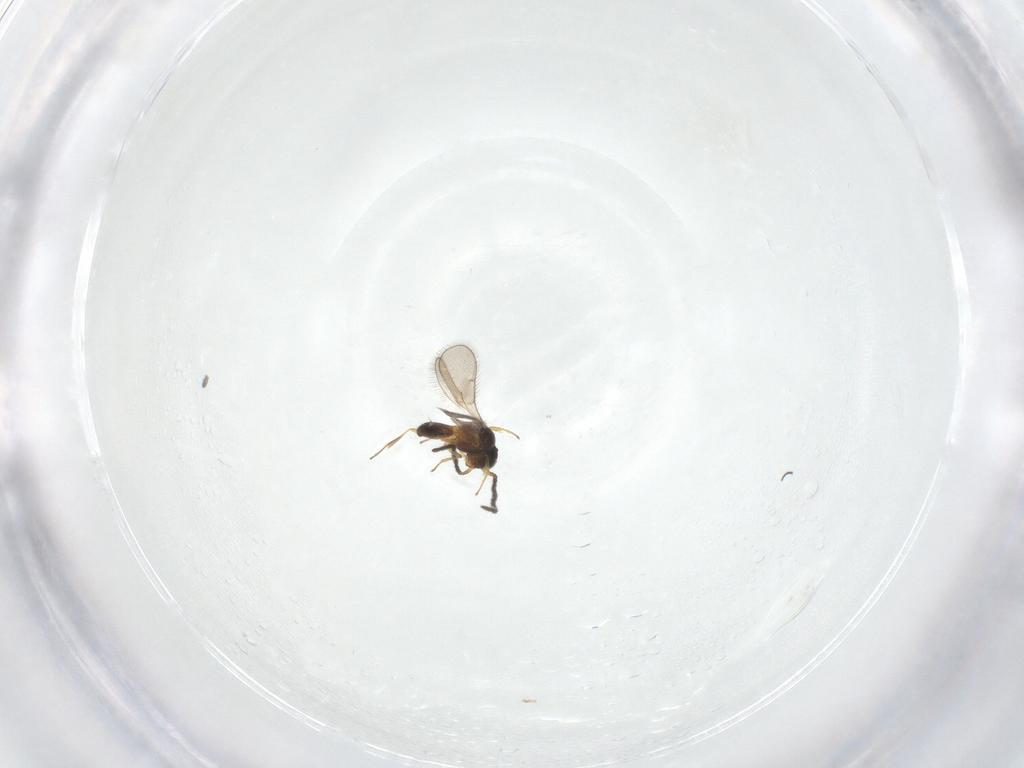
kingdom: Animalia
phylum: Arthropoda
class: Insecta
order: Hymenoptera
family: Scelionidae
